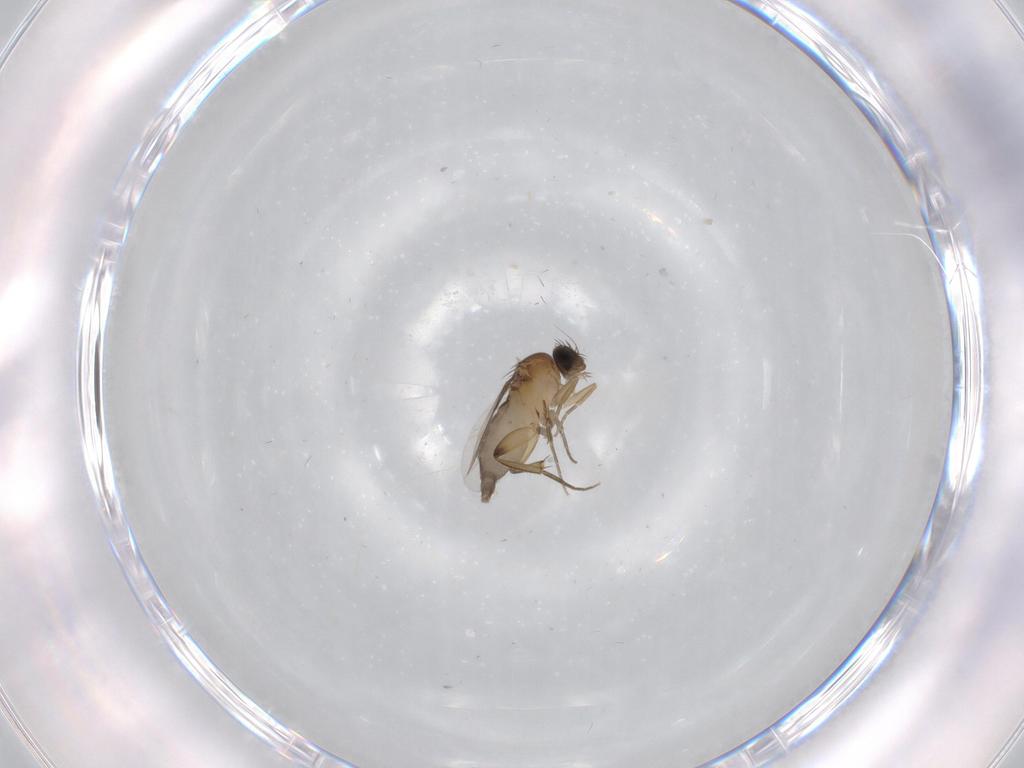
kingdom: Animalia
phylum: Arthropoda
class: Insecta
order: Diptera
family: Phoridae
